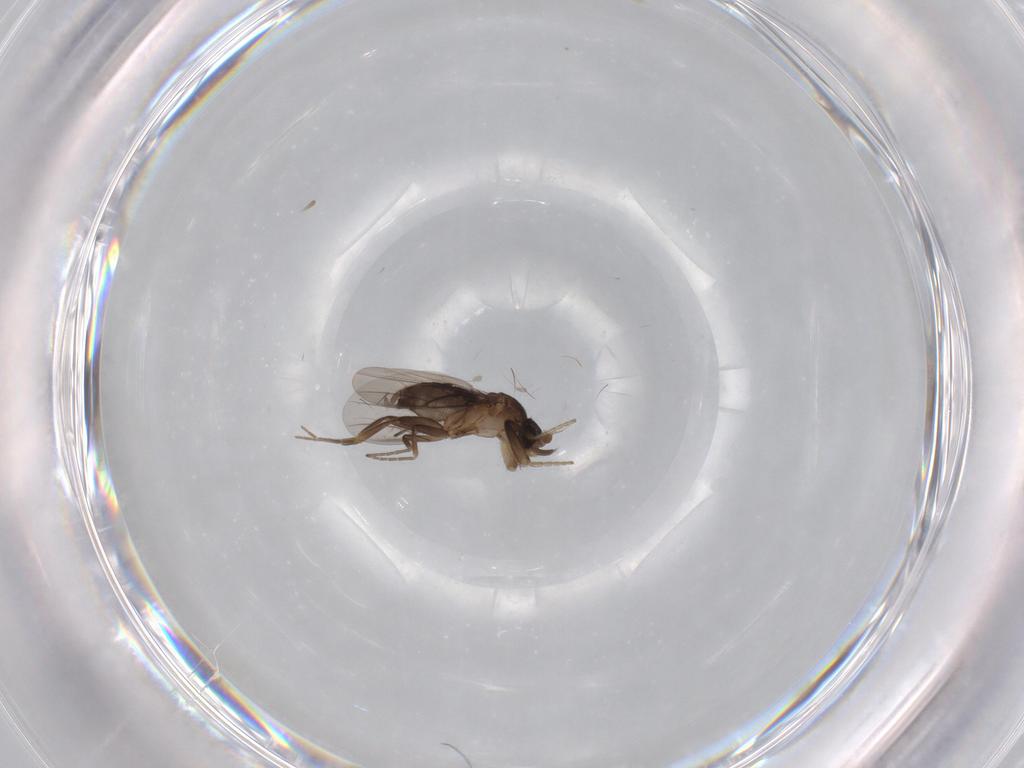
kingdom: Animalia
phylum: Arthropoda
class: Insecta
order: Diptera
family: Phoridae
